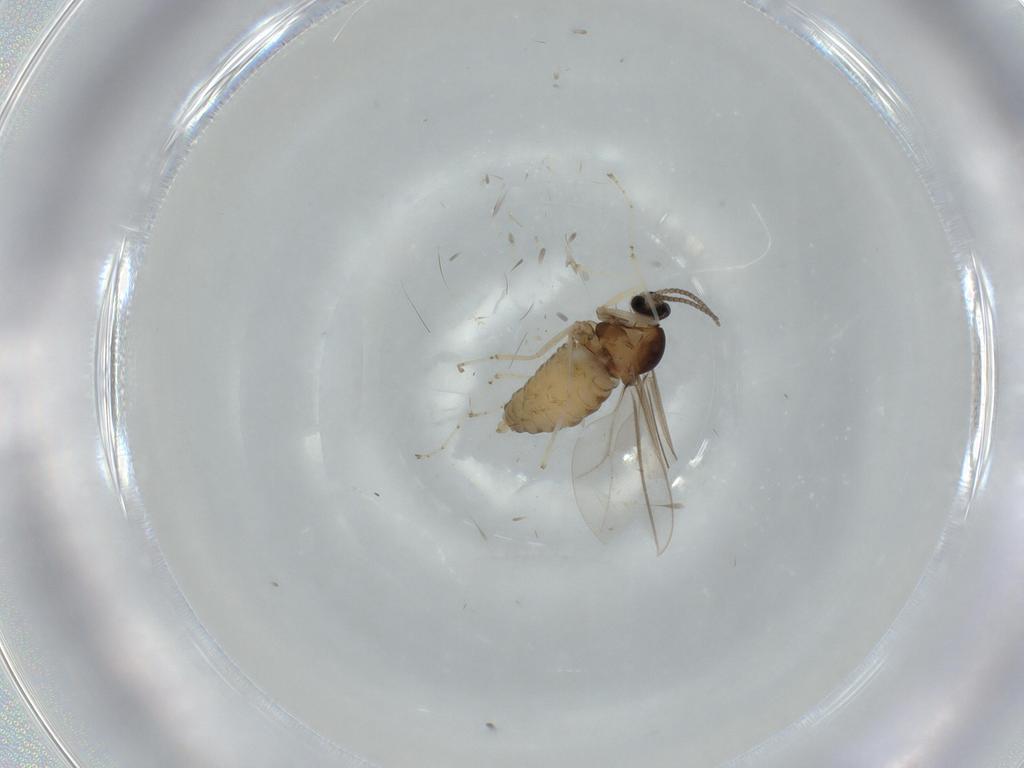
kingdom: Animalia
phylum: Arthropoda
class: Insecta
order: Diptera
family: Cecidomyiidae
